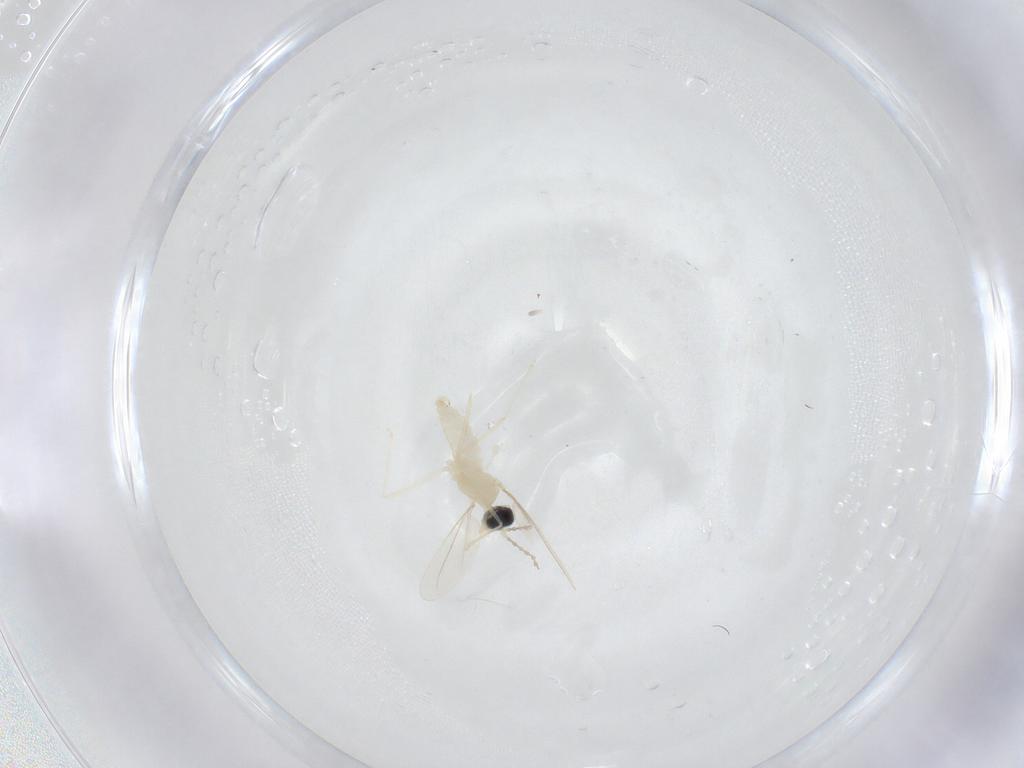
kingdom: Animalia
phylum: Arthropoda
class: Insecta
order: Diptera
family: Cecidomyiidae
